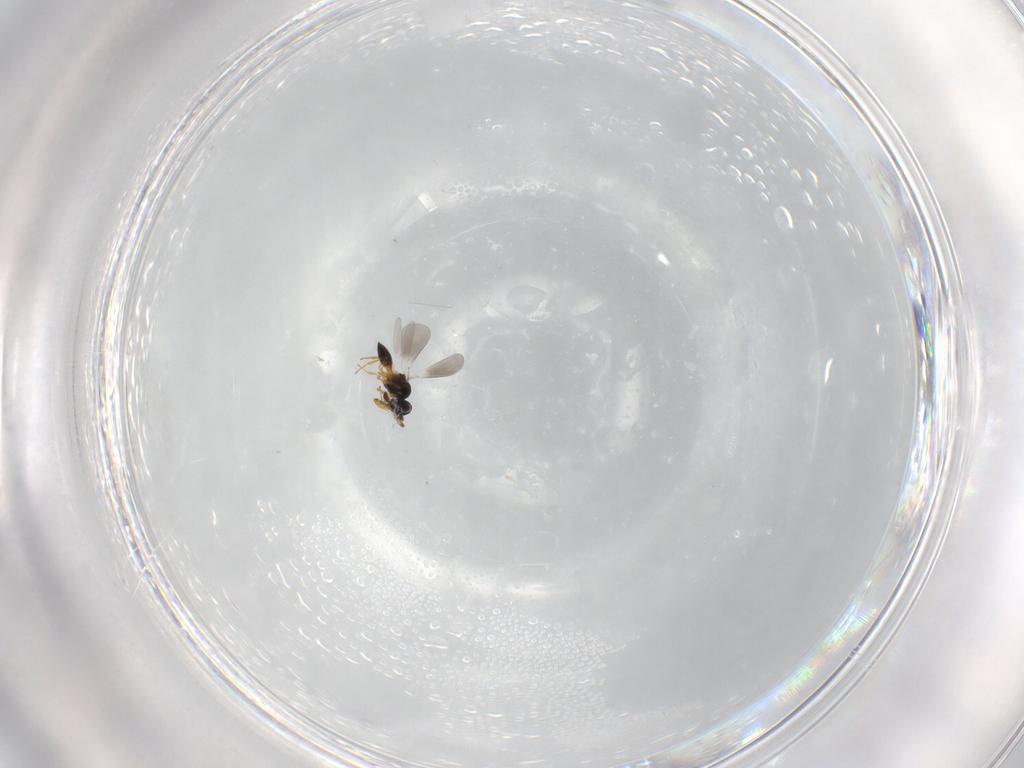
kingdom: Animalia
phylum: Arthropoda
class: Insecta
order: Hymenoptera
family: Platygastridae
